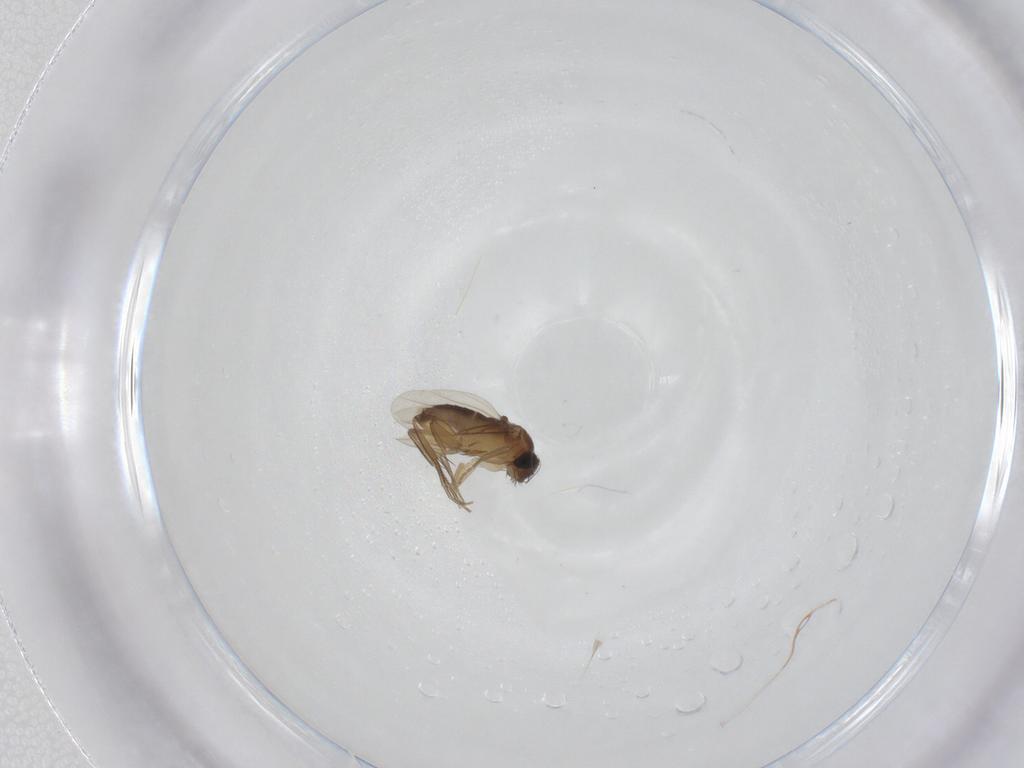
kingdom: Animalia
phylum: Arthropoda
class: Insecta
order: Diptera
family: Phoridae
